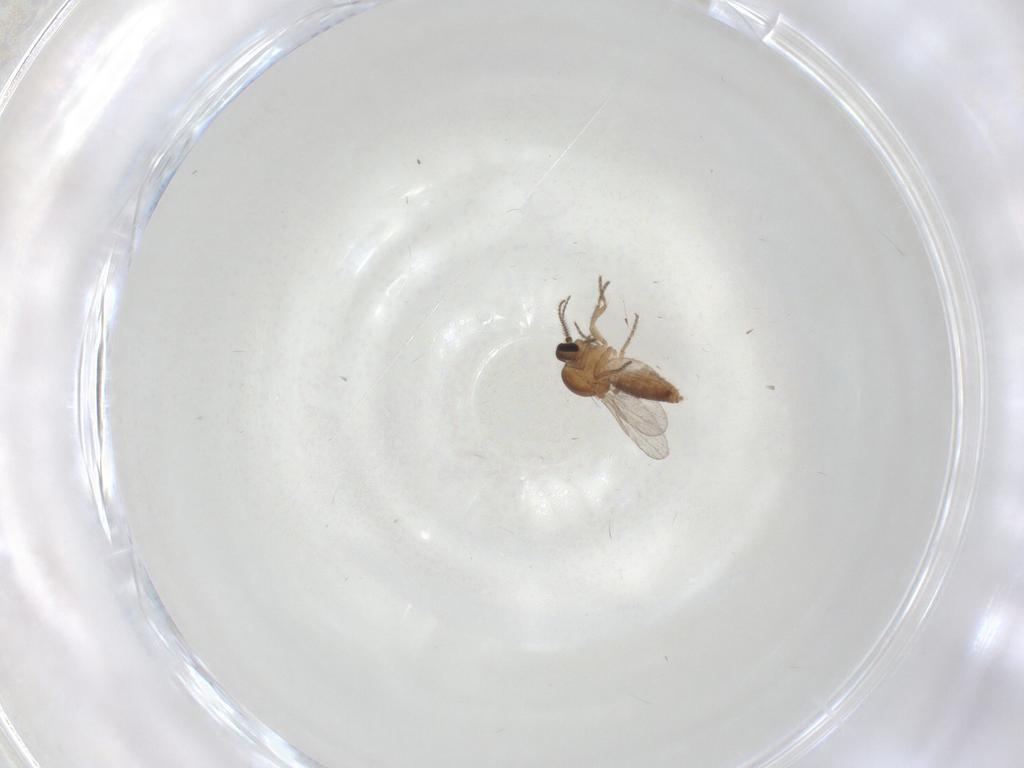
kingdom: Animalia
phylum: Arthropoda
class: Insecta
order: Diptera
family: Ceratopogonidae
